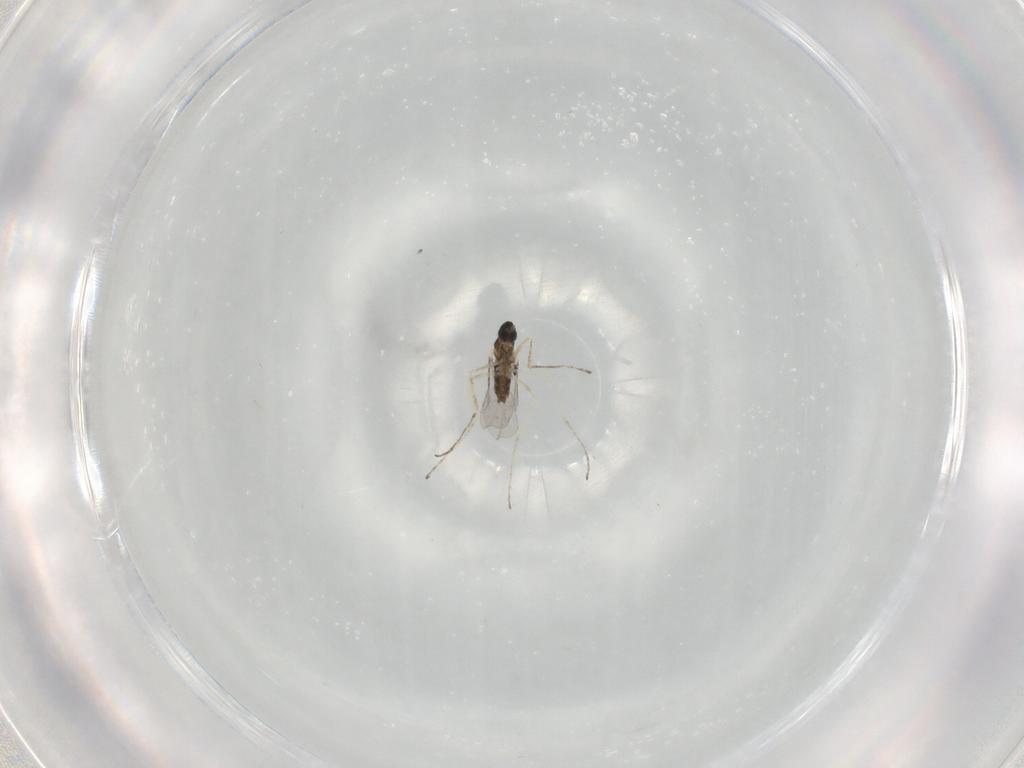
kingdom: Animalia
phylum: Arthropoda
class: Insecta
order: Diptera
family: Cecidomyiidae
